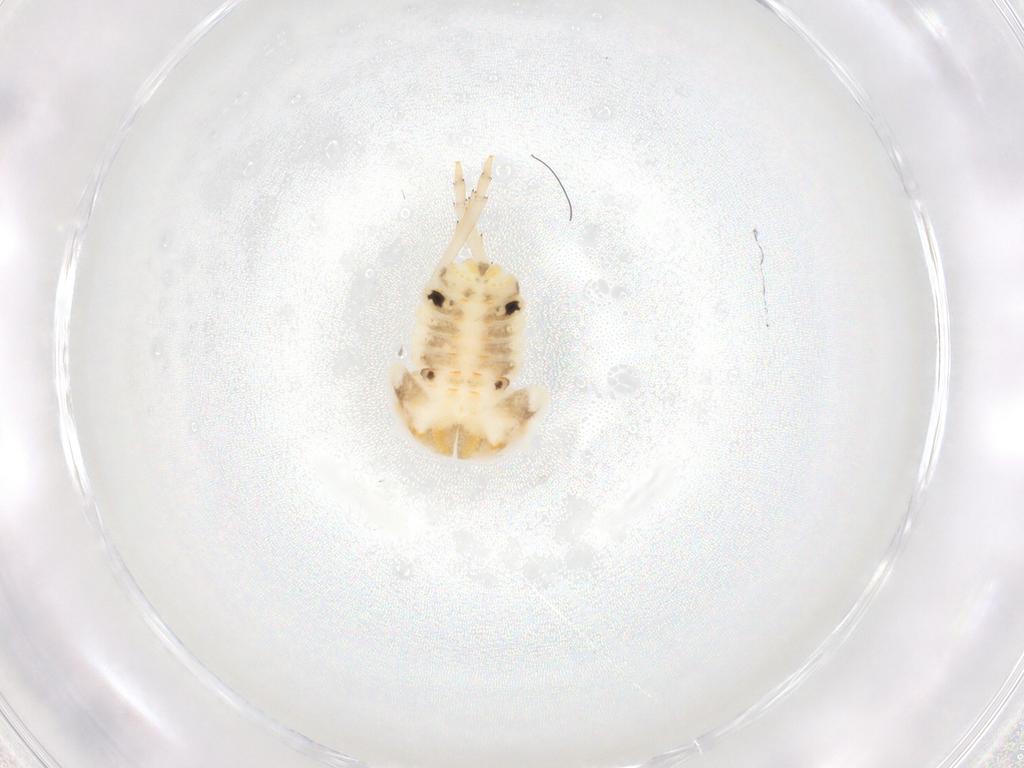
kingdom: Animalia
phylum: Arthropoda
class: Insecta
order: Hemiptera
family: Flatidae
